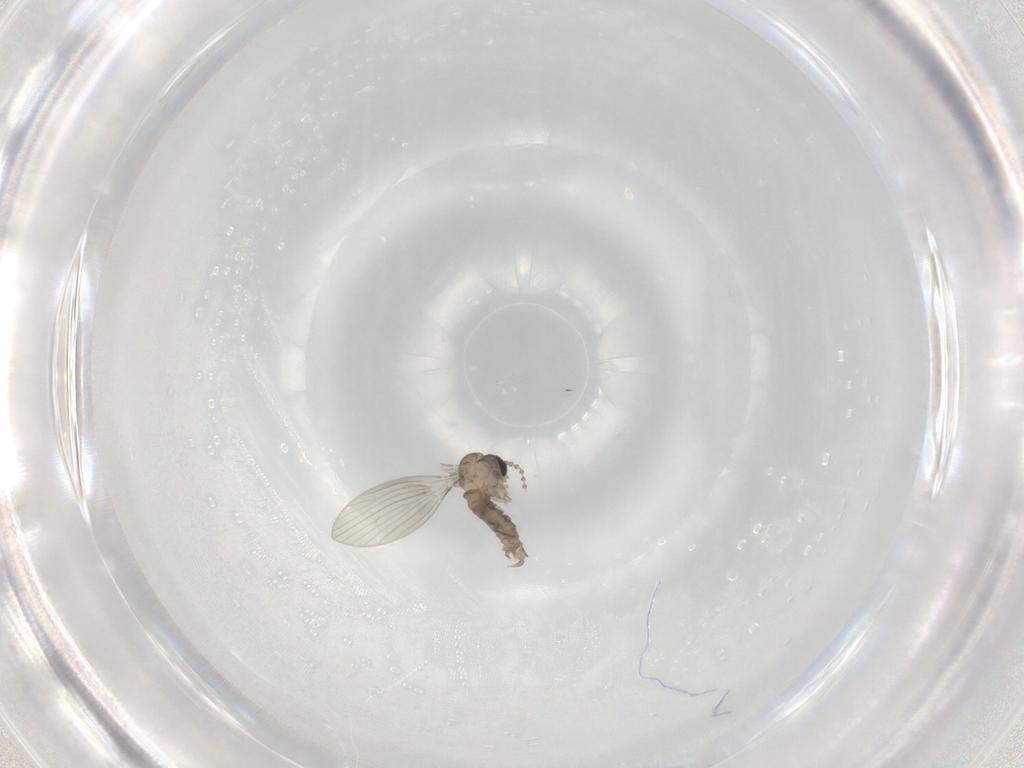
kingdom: Animalia
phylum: Arthropoda
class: Insecta
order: Diptera
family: Psychodidae
